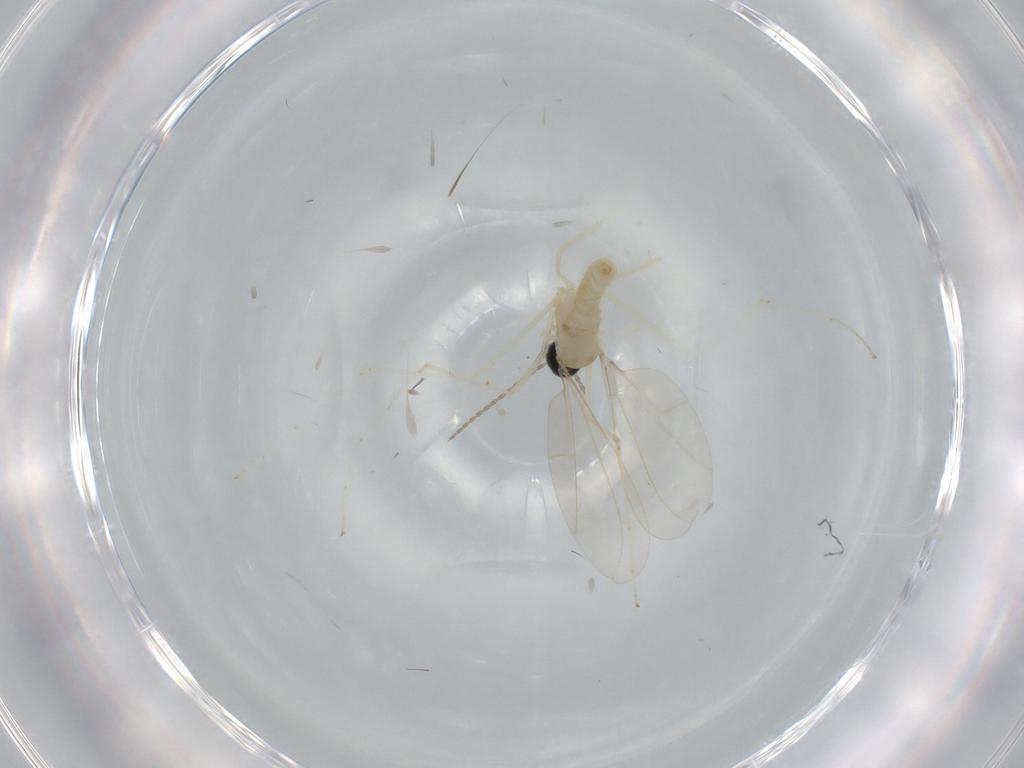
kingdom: Animalia
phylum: Arthropoda
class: Insecta
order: Diptera
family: Cecidomyiidae
